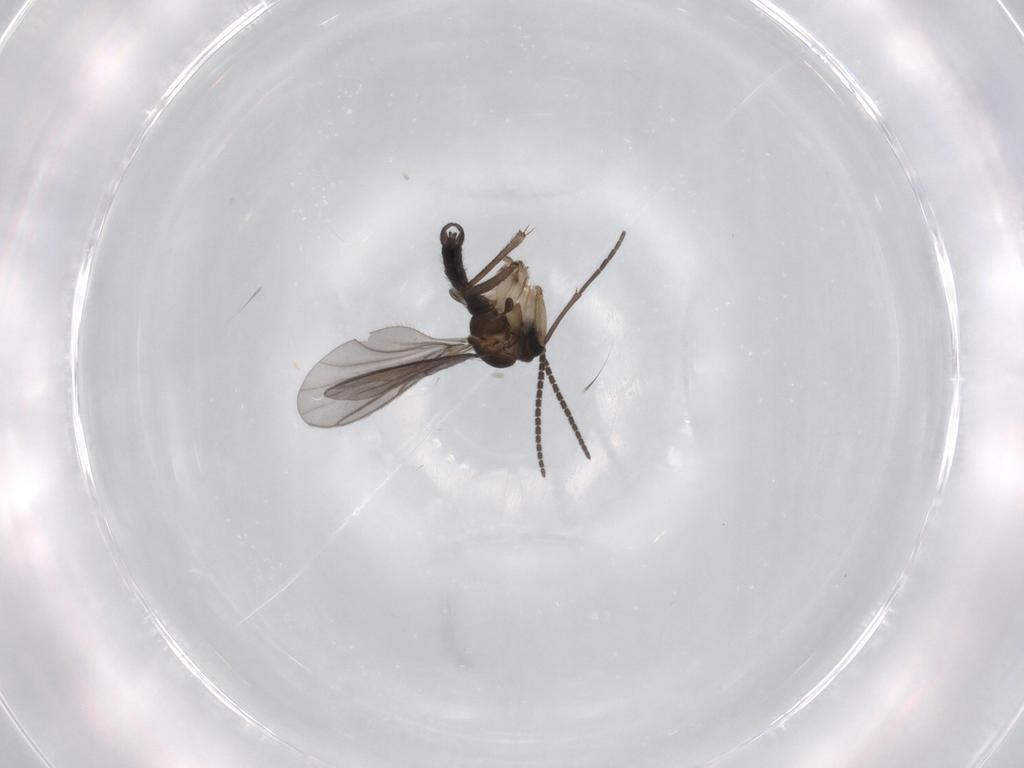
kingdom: Animalia
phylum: Arthropoda
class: Insecta
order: Diptera
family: Sciaridae
